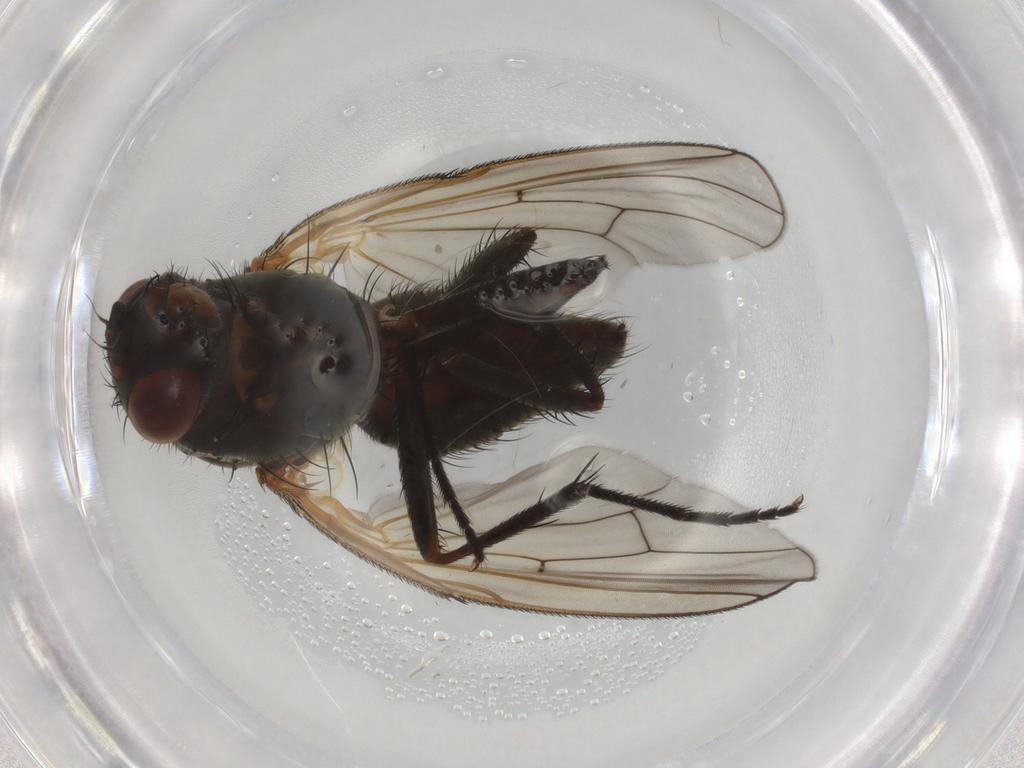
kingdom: Animalia
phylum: Arthropoda
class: Insecta
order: Diptera
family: Anthomyiidae
